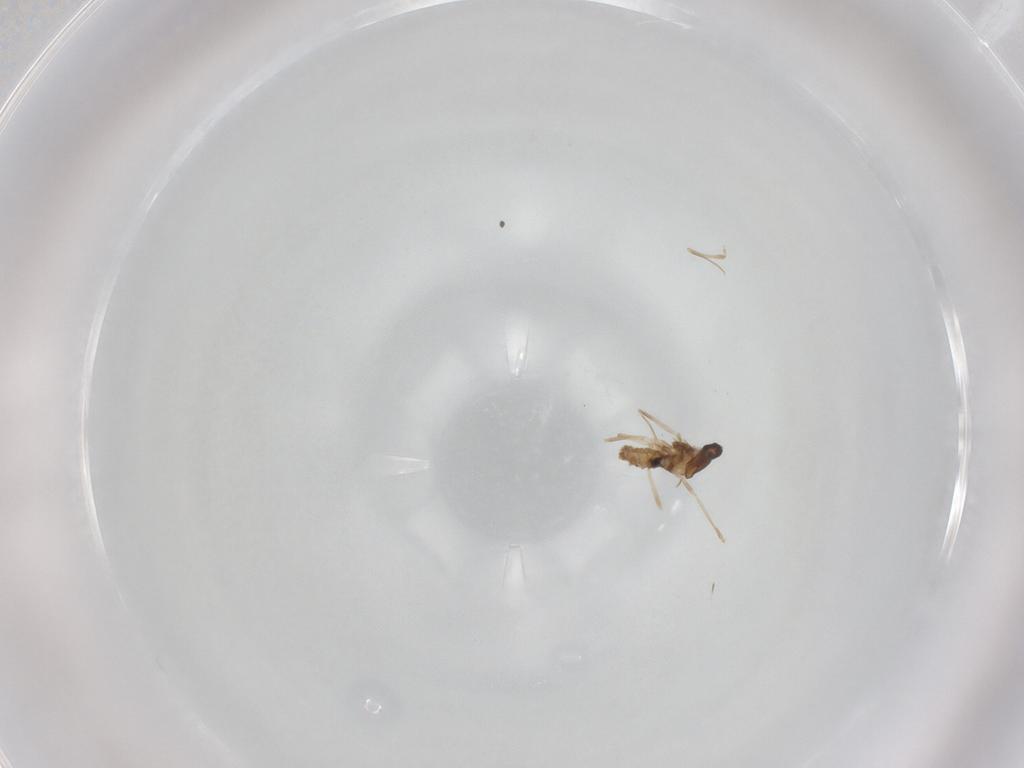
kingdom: Animalia
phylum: Arthropoda
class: Insecta
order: Diptera
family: Cecidomyiidae
